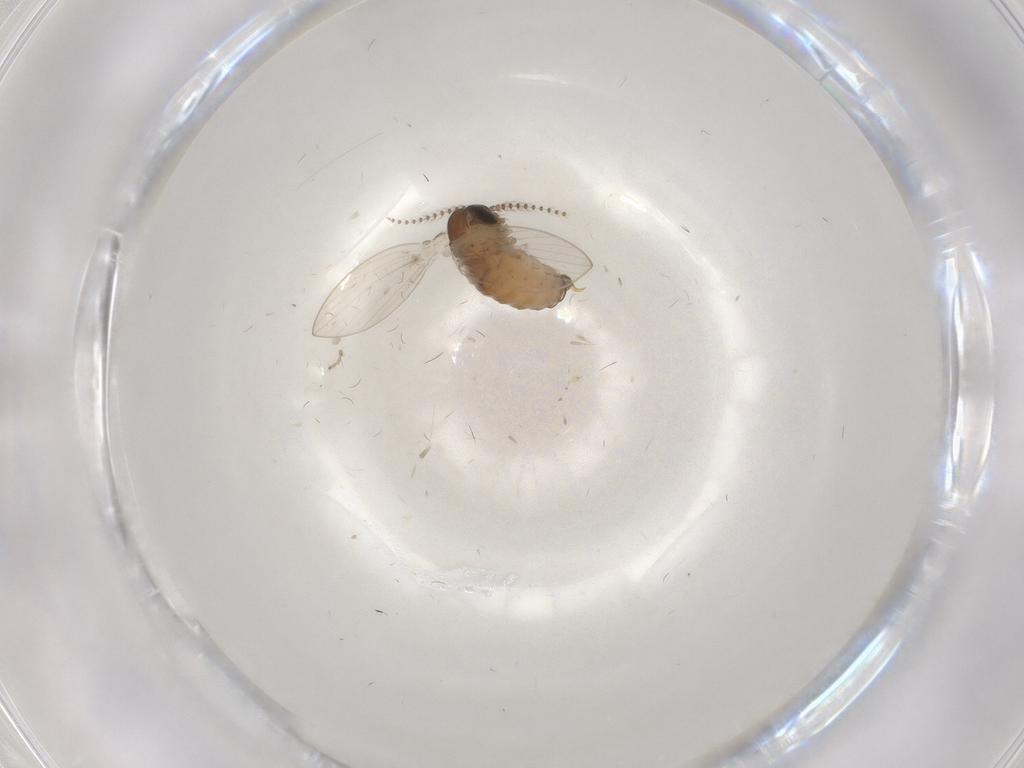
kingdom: Animalia
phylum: Arthropoda
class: Insecta
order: Diptera
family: Psychodidae
